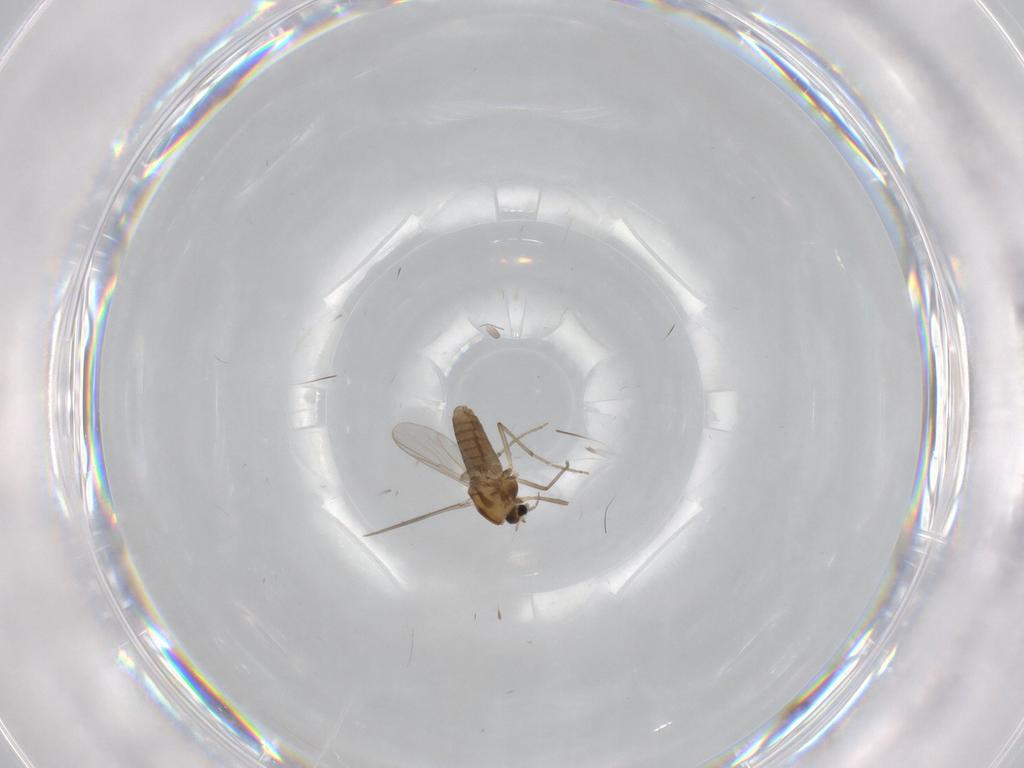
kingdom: Animalia
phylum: Arthropoda
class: Insecta
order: Diptera
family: Chironomidae
